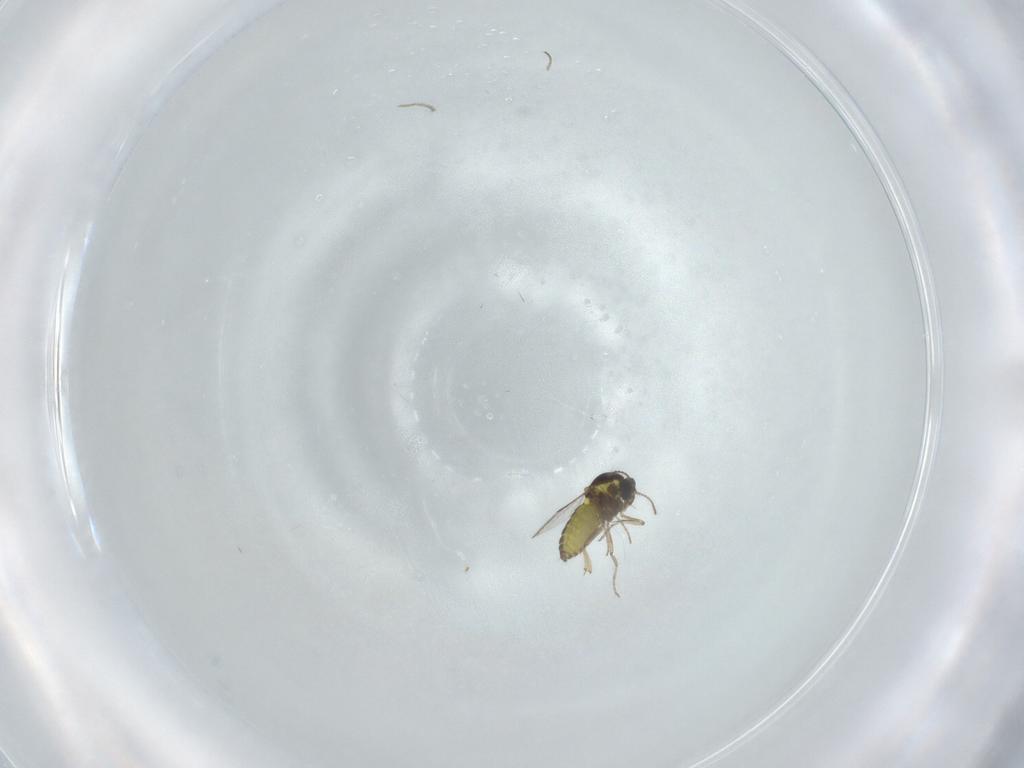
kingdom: Animalia
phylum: Arthropoda
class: Insecta
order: Diptera
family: Ceratopogonidae
